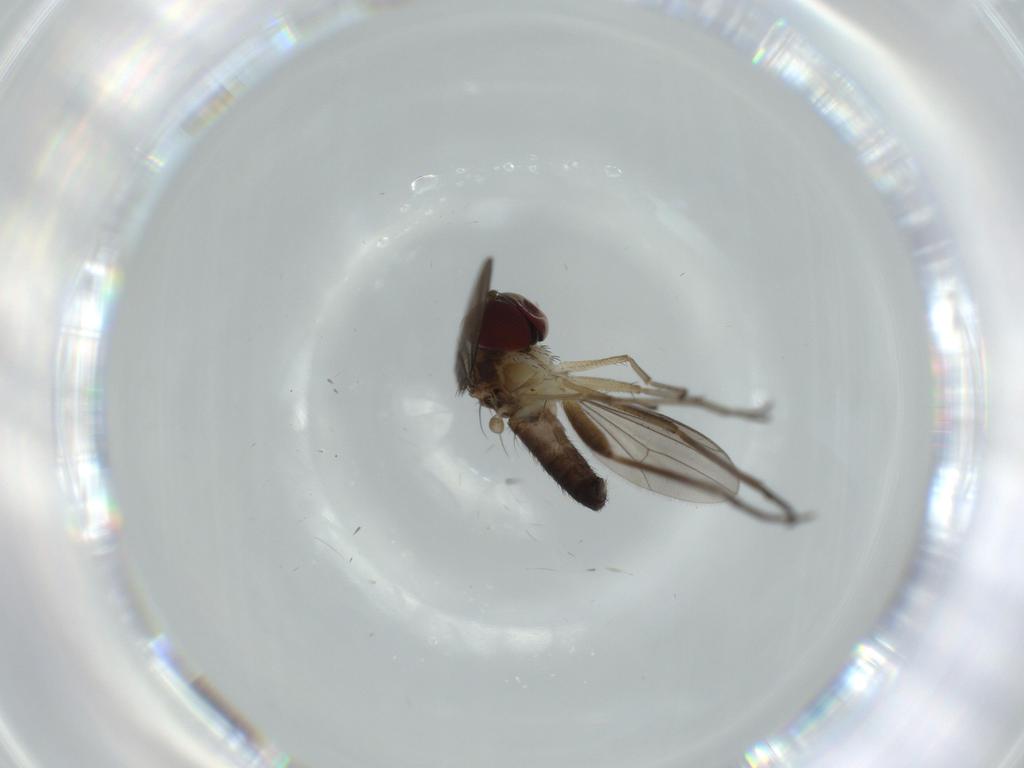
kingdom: Animalia
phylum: Arthropoda
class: Insecta
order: Diptera
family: Dolichopodidae
